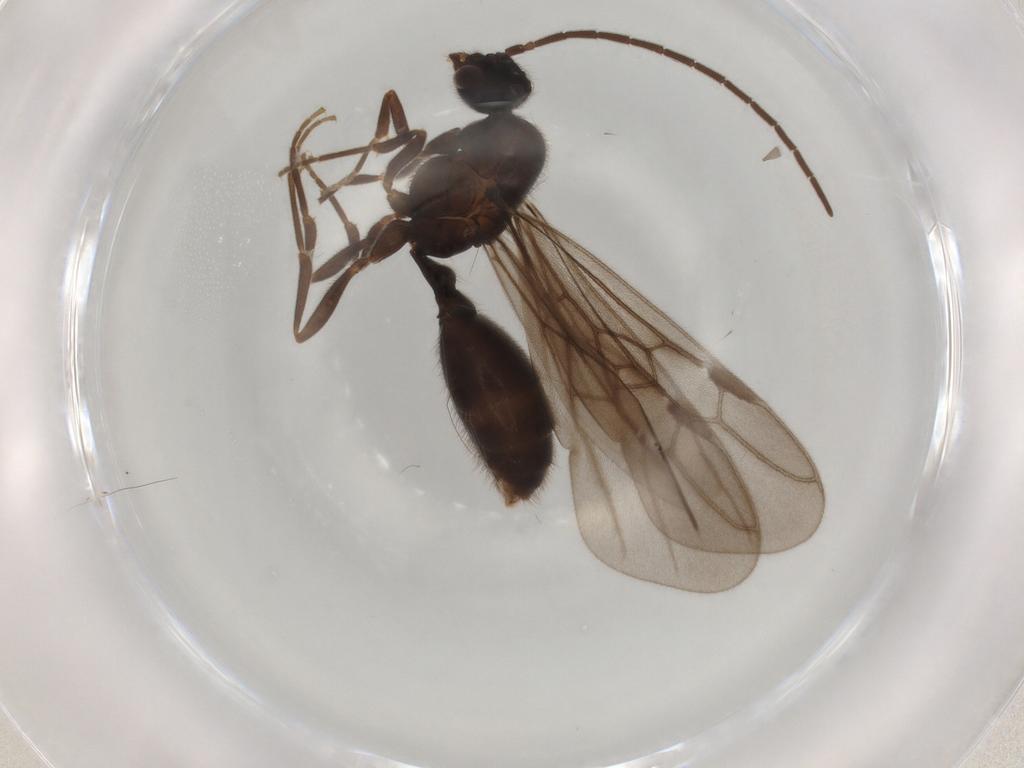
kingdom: Animalia
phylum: Arthropoda
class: Insecta
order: Hymenoptera
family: Formicidae
